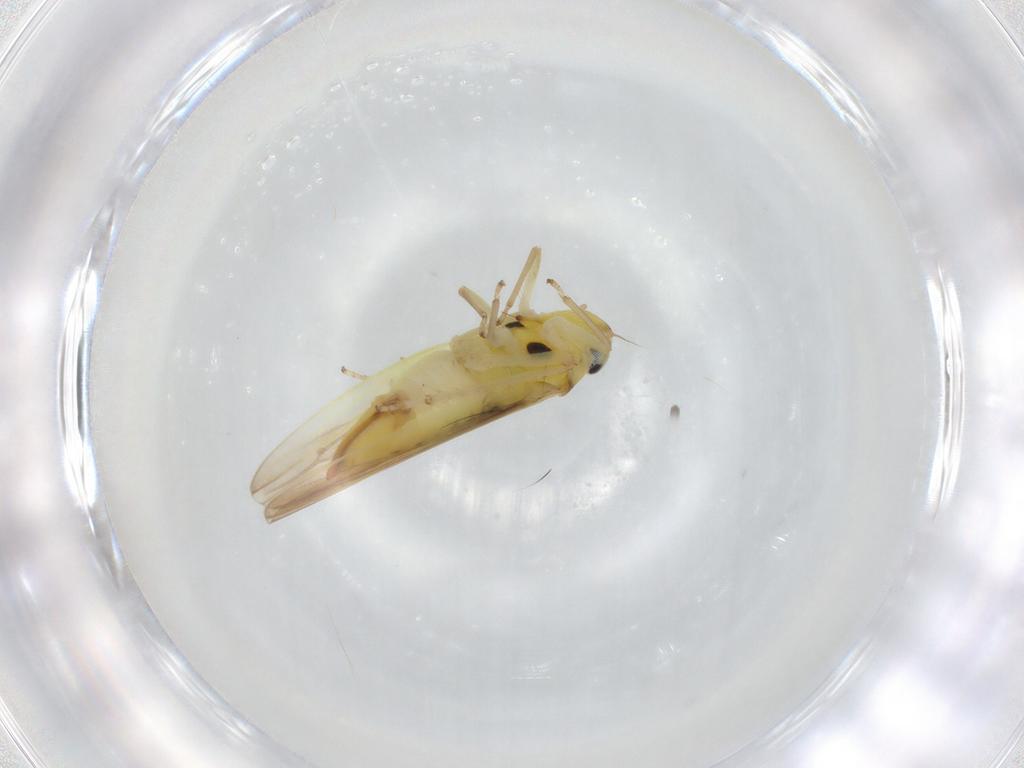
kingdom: Animalia
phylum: Arthropoda
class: Insecta
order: Hemiptera
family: Cicadellidae
